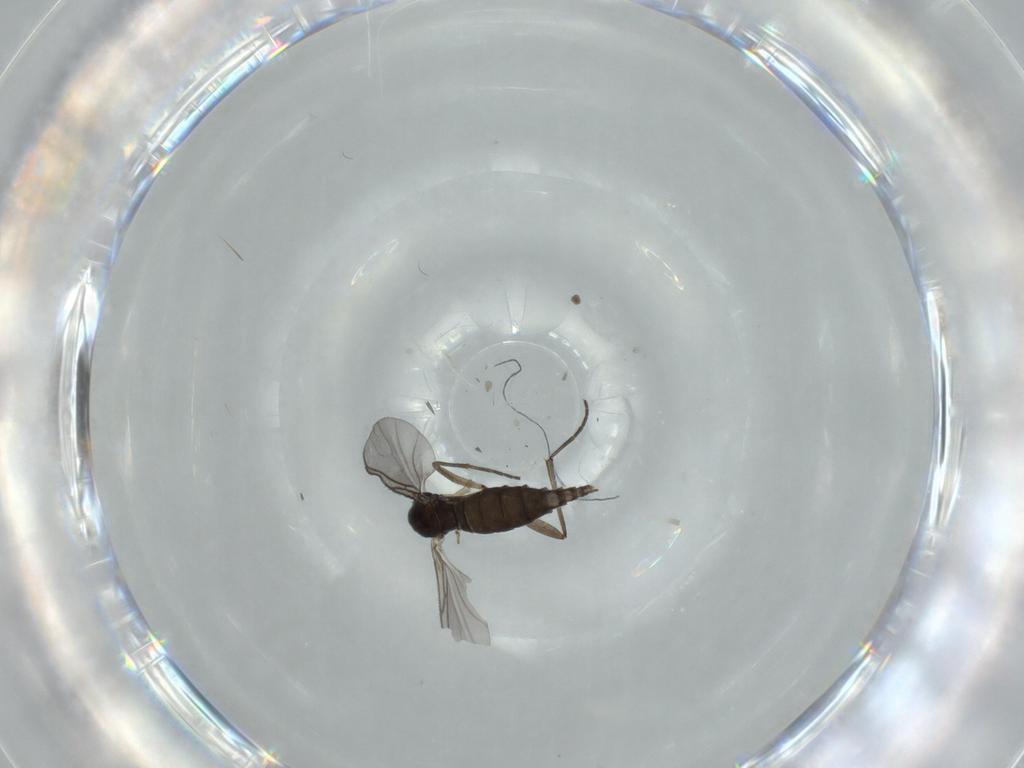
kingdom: Animalia
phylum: Arthropoda
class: Insecta
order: Diptera
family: Sciaridae
